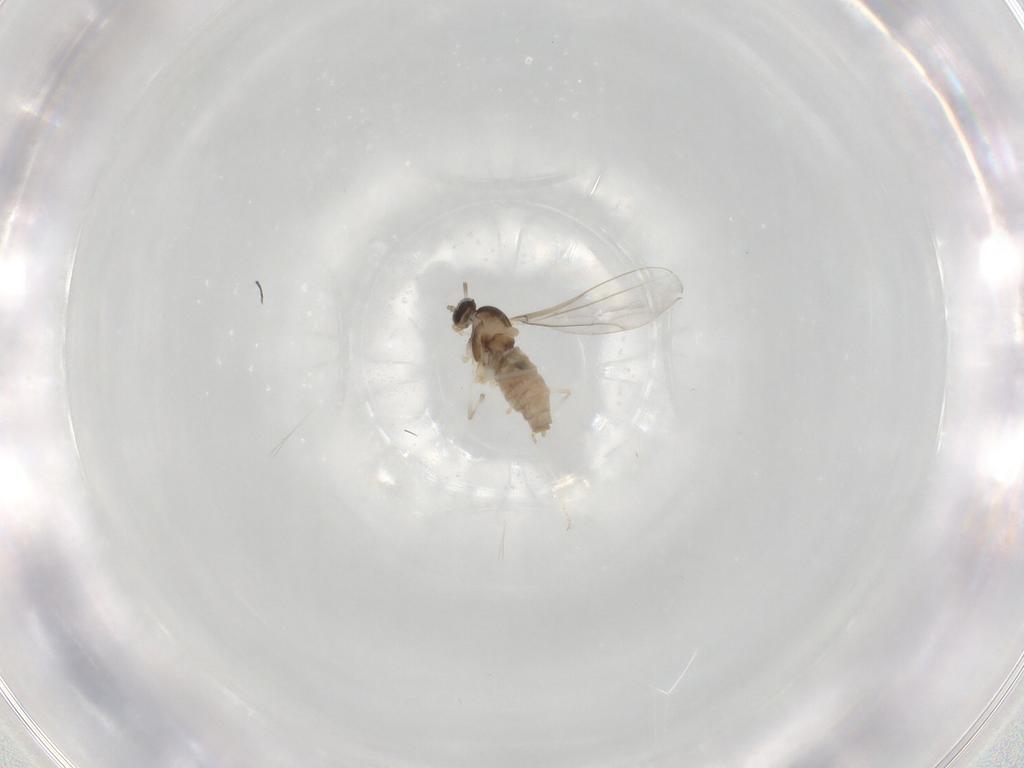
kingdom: Animalia
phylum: Arthropoda
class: Insecta
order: Diptera
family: Cecidomyiidae
